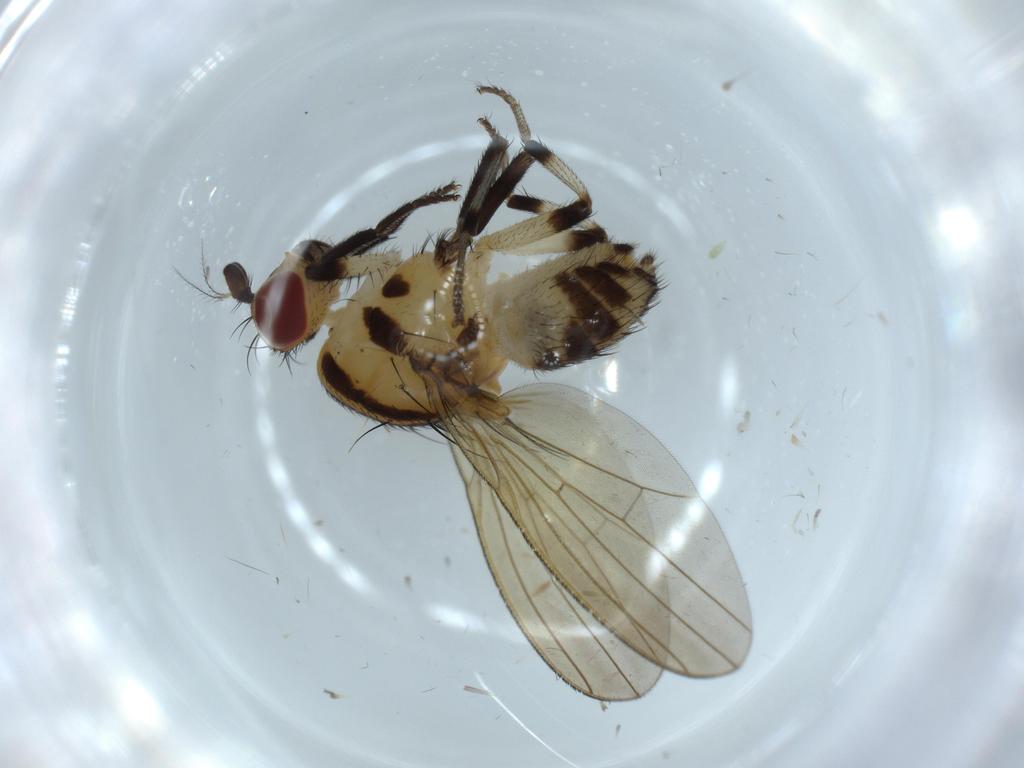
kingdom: Animalia
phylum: Arthropoda
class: Insecta
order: Diptera
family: Lauxaniidae
